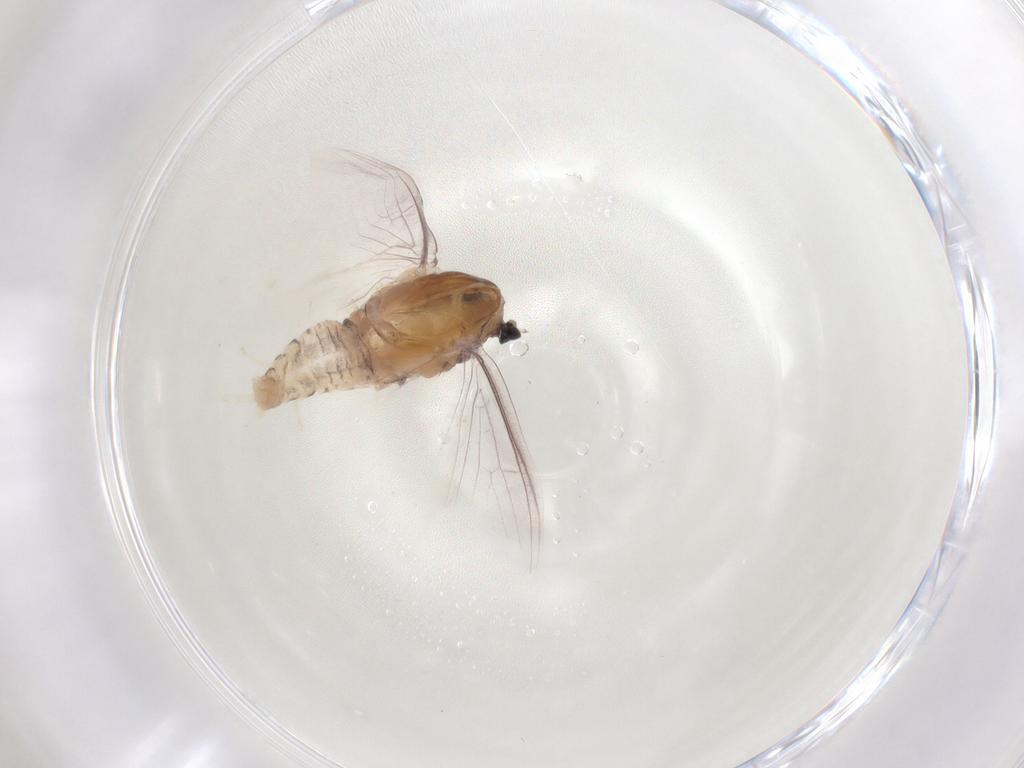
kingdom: Animalia
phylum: Arthropoda
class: Insecta
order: Ephemeroptera
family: Caenidae
